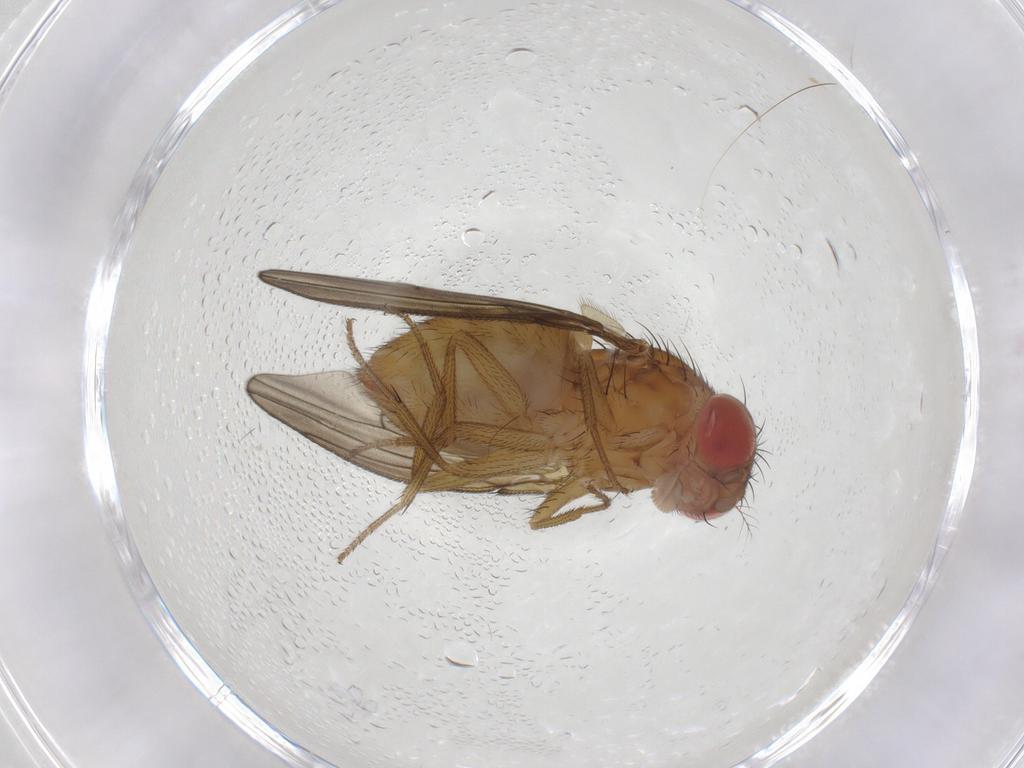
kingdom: Animalia
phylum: Arthropoda
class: Insecta
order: Diptera
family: Drosophilidae
